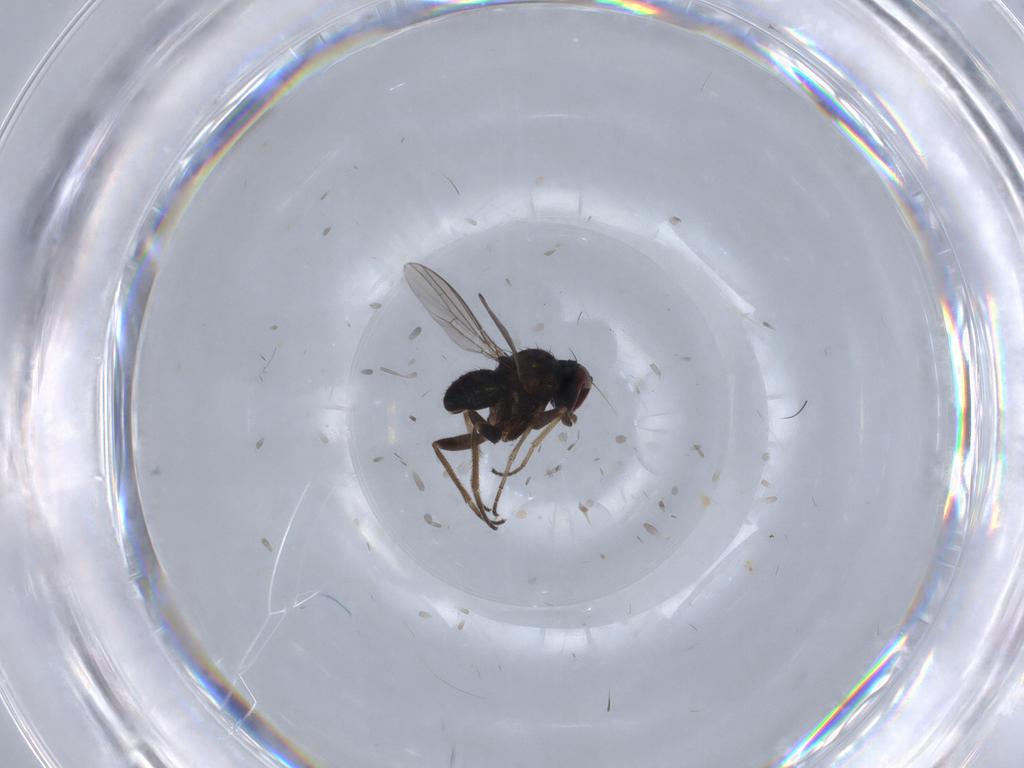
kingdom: Animalia
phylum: Arthropoda
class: Insecta
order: Diptera
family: Dolichopodidae
